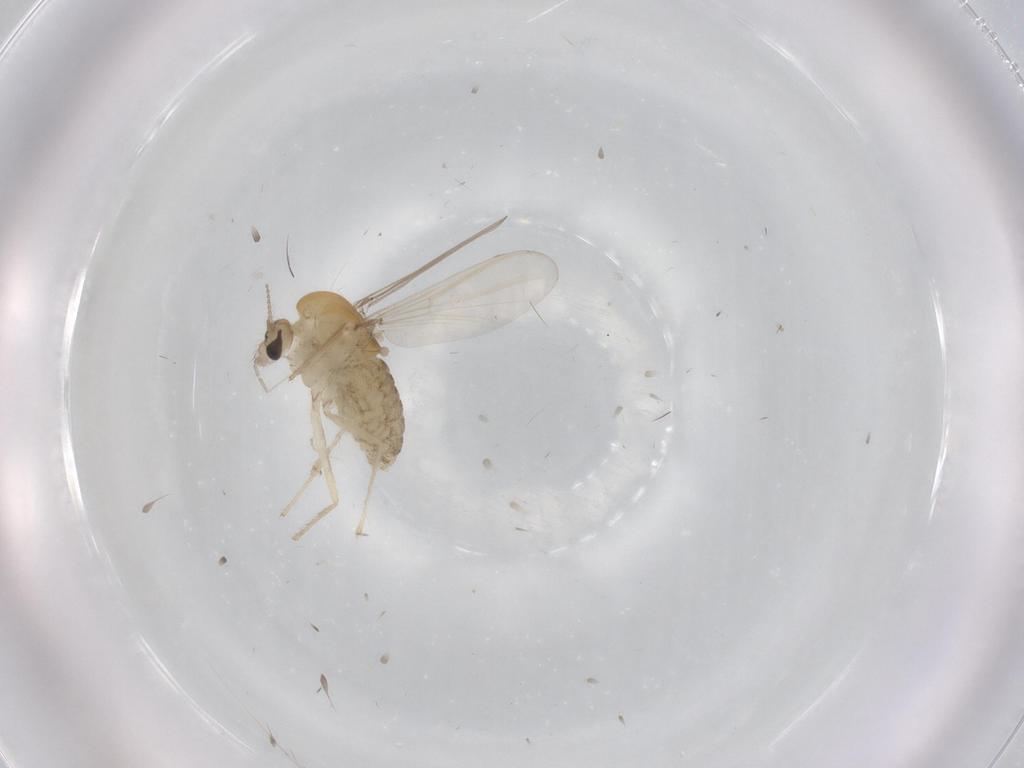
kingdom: Animalia
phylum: Arthropoda
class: Insecta
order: Diptera
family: Chironomidae
